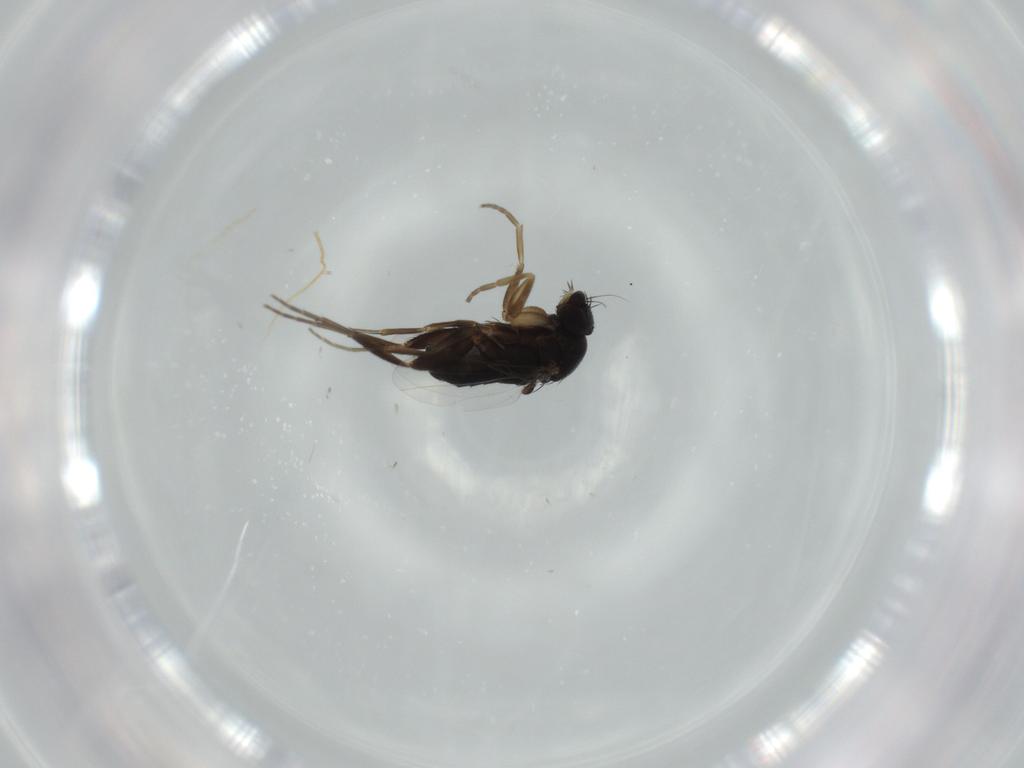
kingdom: Animalia
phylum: Arthropoda
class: Insecta
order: Diptera
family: Phoridae
